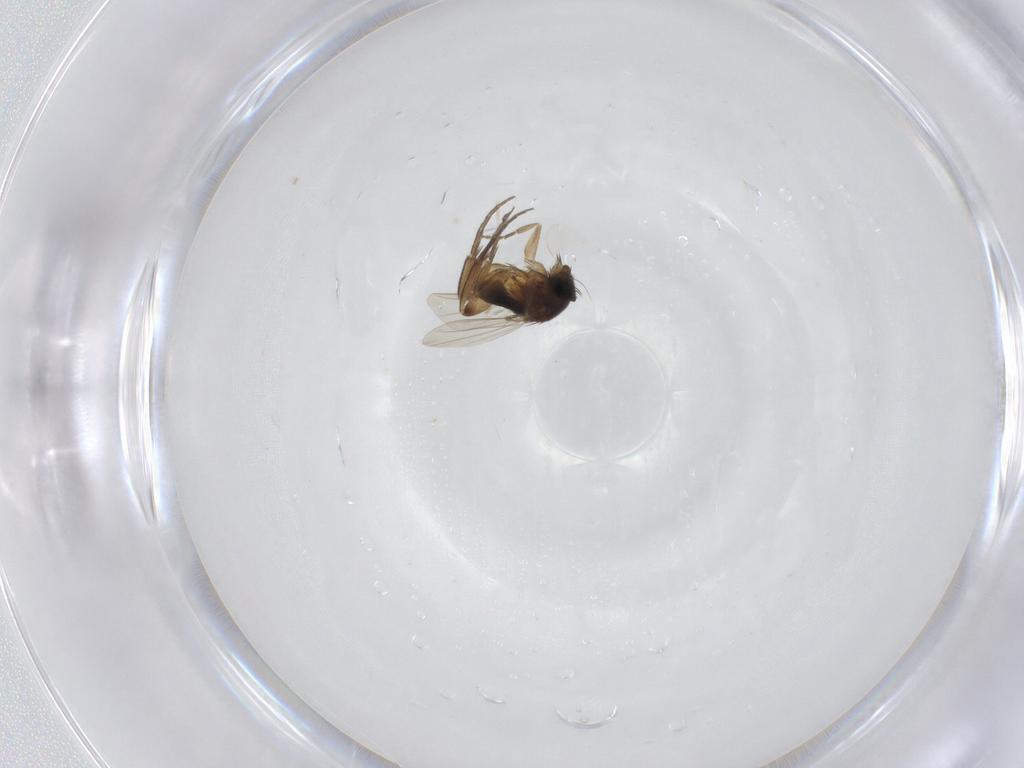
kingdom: Animalia
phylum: Arthropoda
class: Insecta
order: Diptera
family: Phoridae
